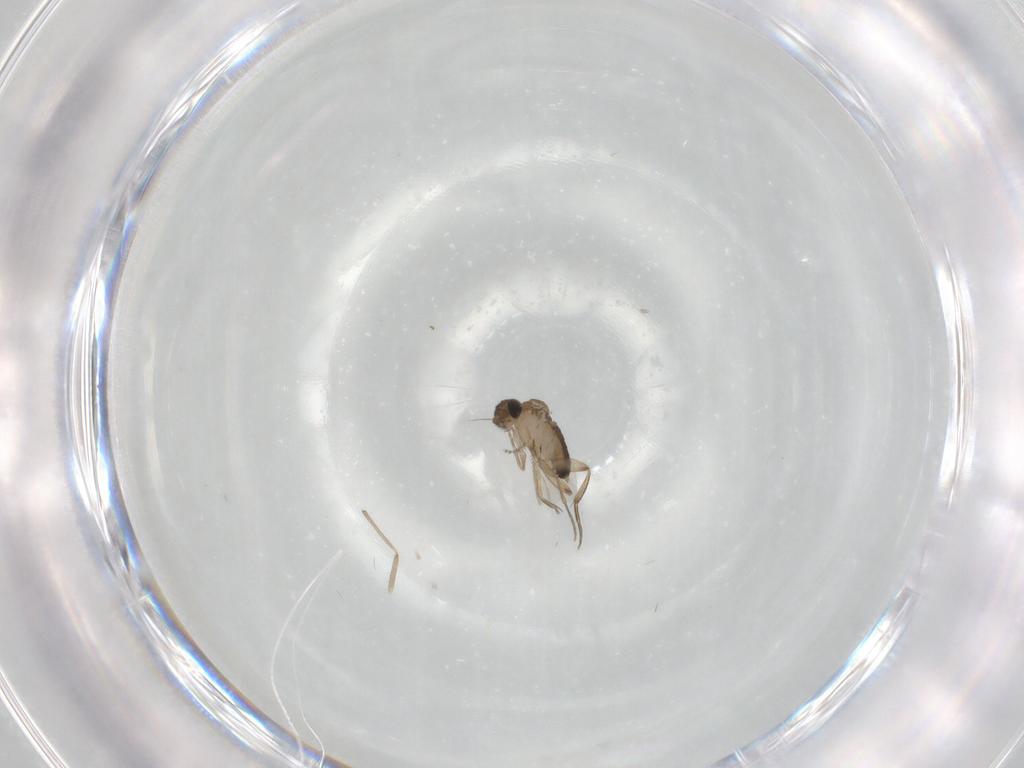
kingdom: Animalia
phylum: Arthropoda
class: Insecta
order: Diptera
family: Phoridae
